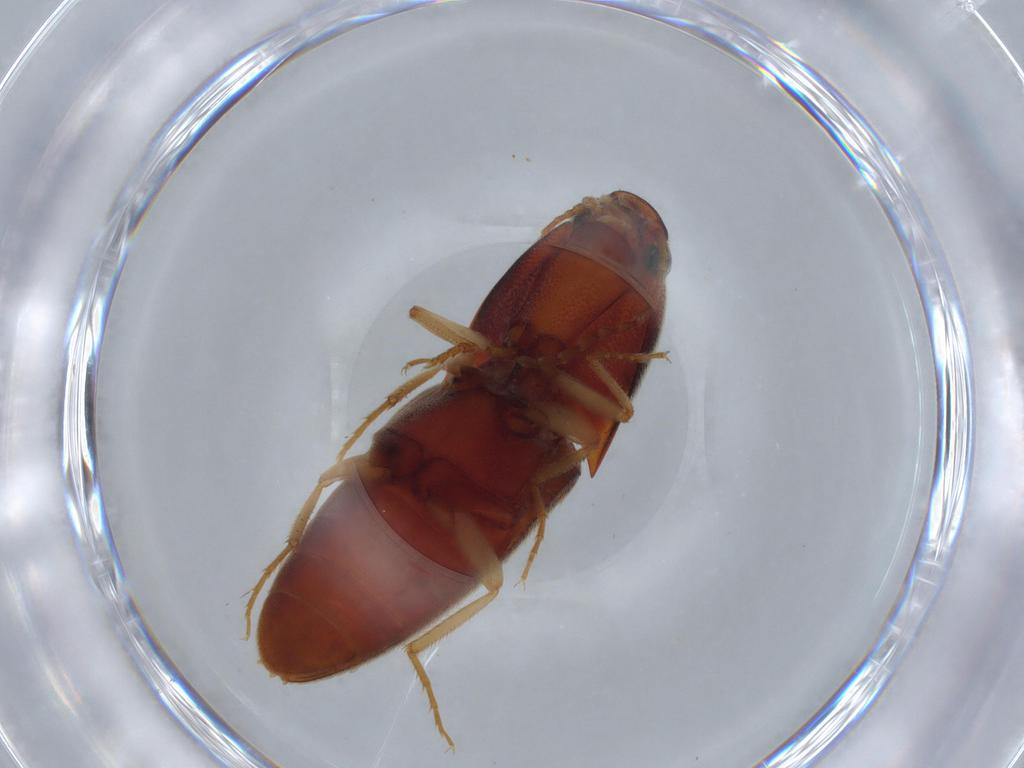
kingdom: Animalia
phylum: Arthropoda
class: Insecta
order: Coleoptera
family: Elateridae
